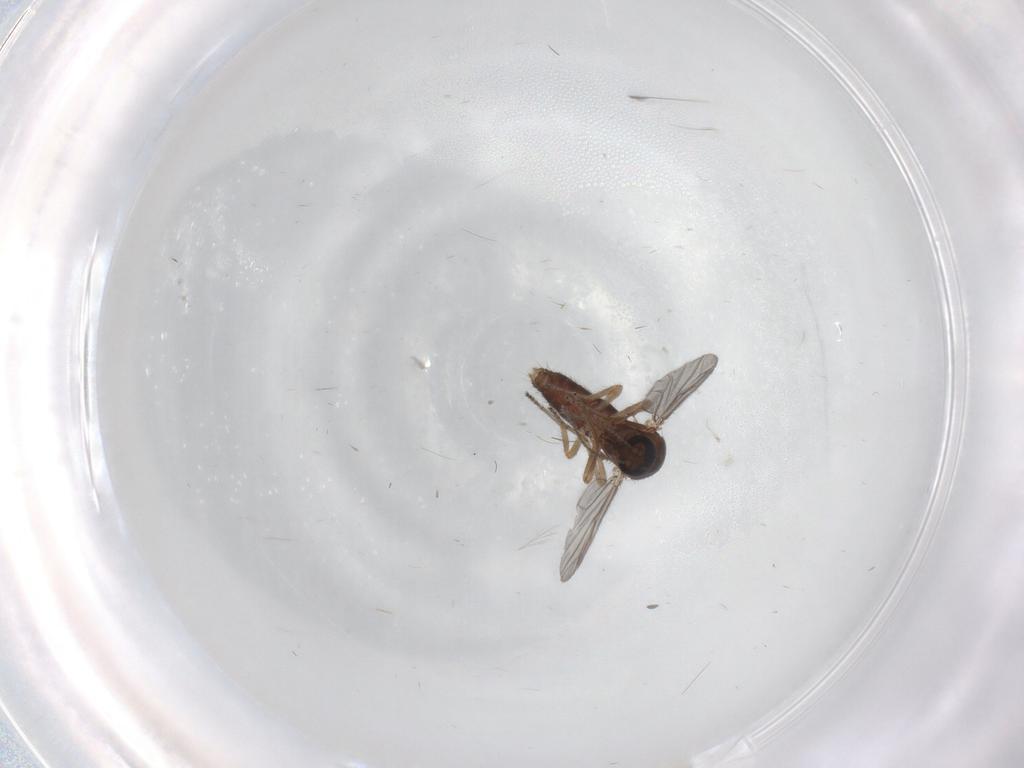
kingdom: Animalia
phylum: Arthropoda
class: Insecta
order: Diptera
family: Ceratopogonidae
